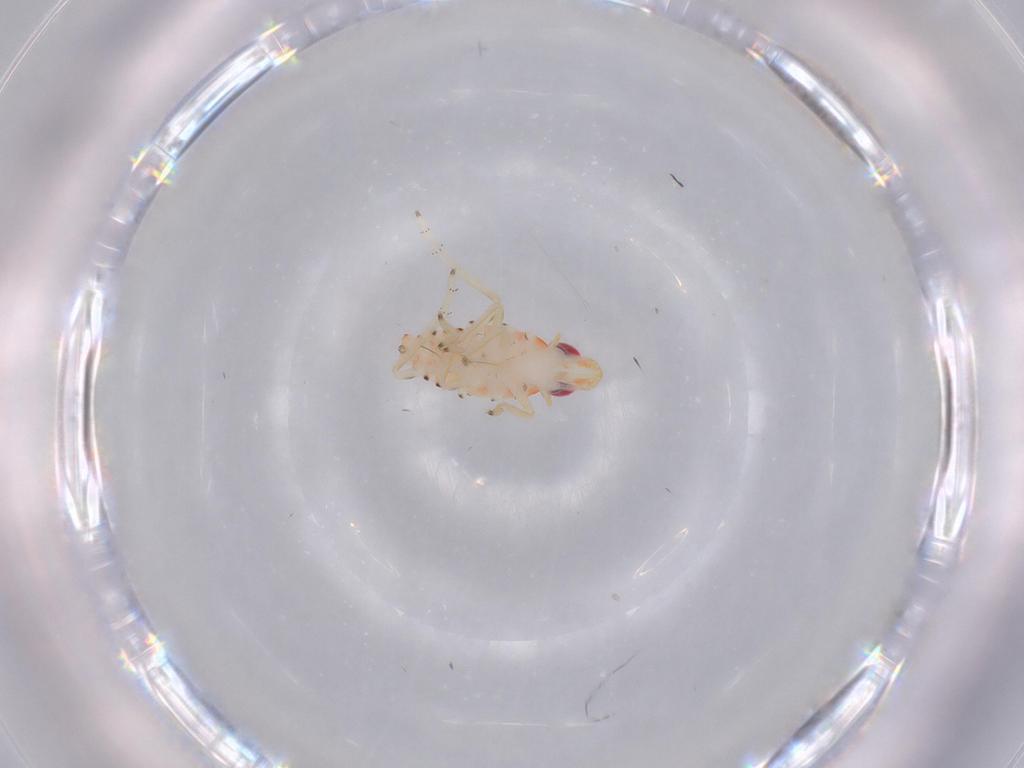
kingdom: Animalia
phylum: Arthropoda
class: Insecta
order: Hemiptera
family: Tropiduchidae
